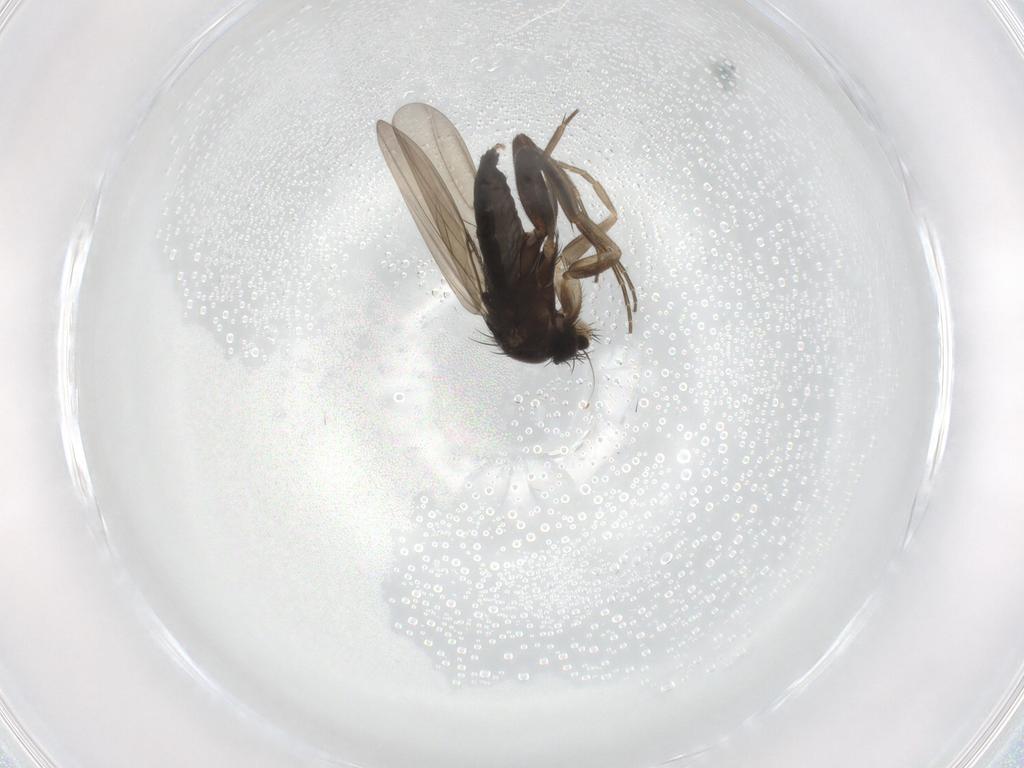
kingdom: Animalia
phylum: Arthropoda
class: Insecta
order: Diptera
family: Phoridae
